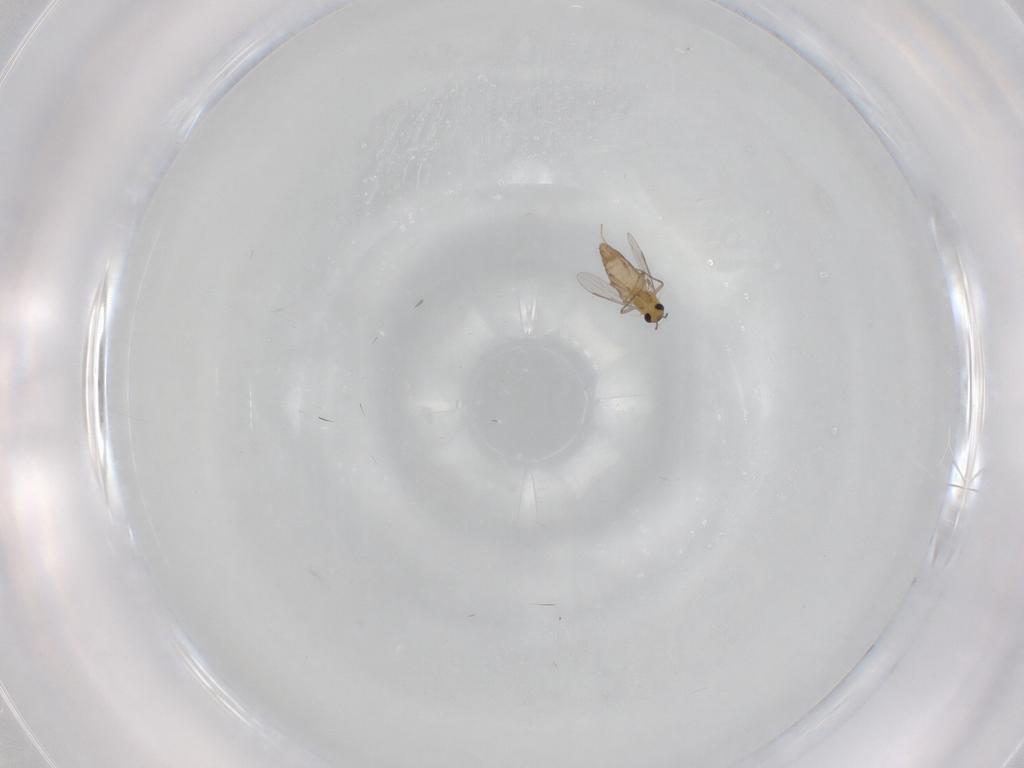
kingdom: Animalia
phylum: Arthropoda
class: Insecta
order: Diptera
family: Chironomidae
